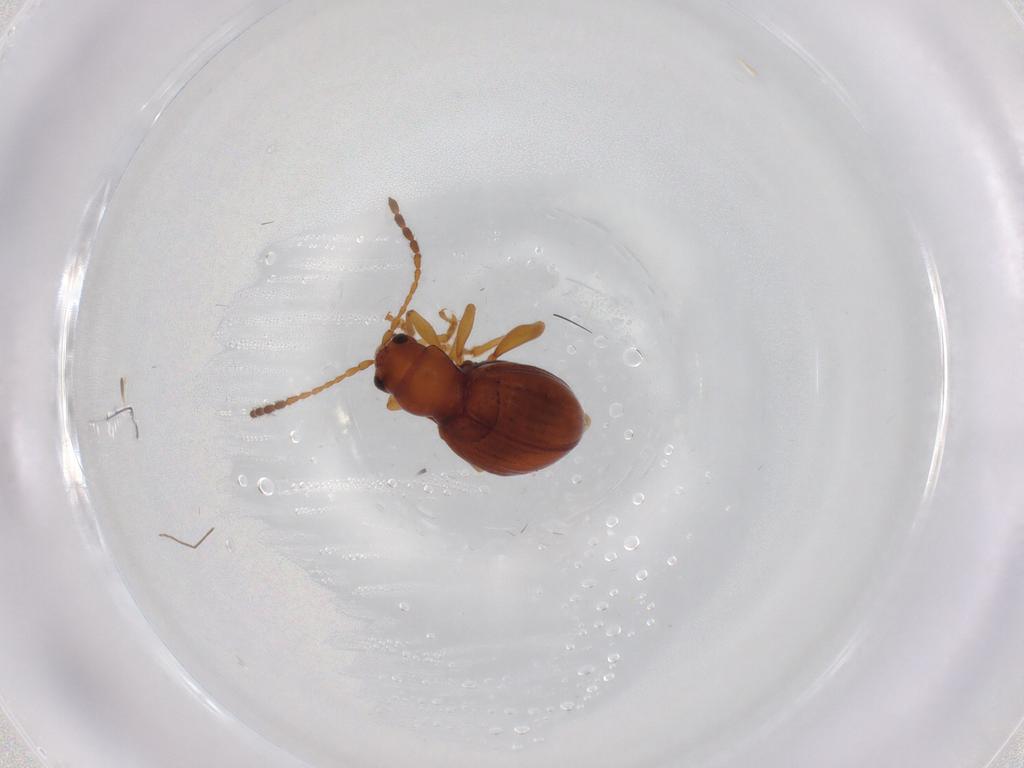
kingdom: Animalia
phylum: Arthropoda
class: Insecta
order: Coleoptera
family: Chrysomelidae
